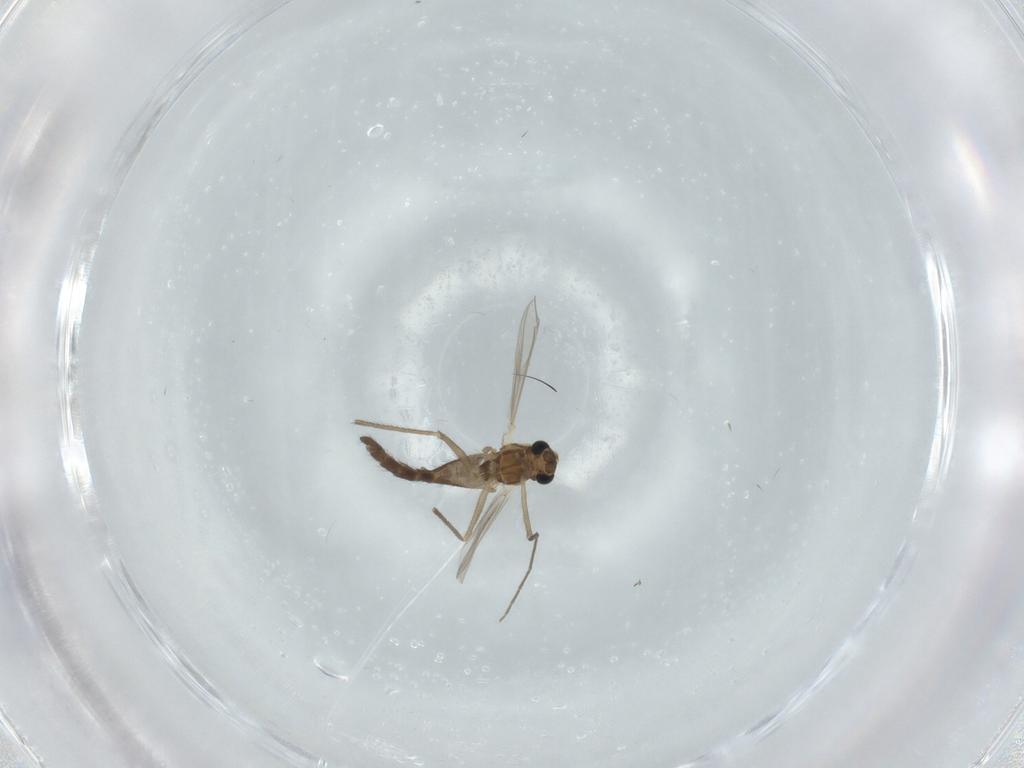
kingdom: Animalia
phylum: Arthropoda
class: Insecta
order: Diptera
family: Chironomidae
